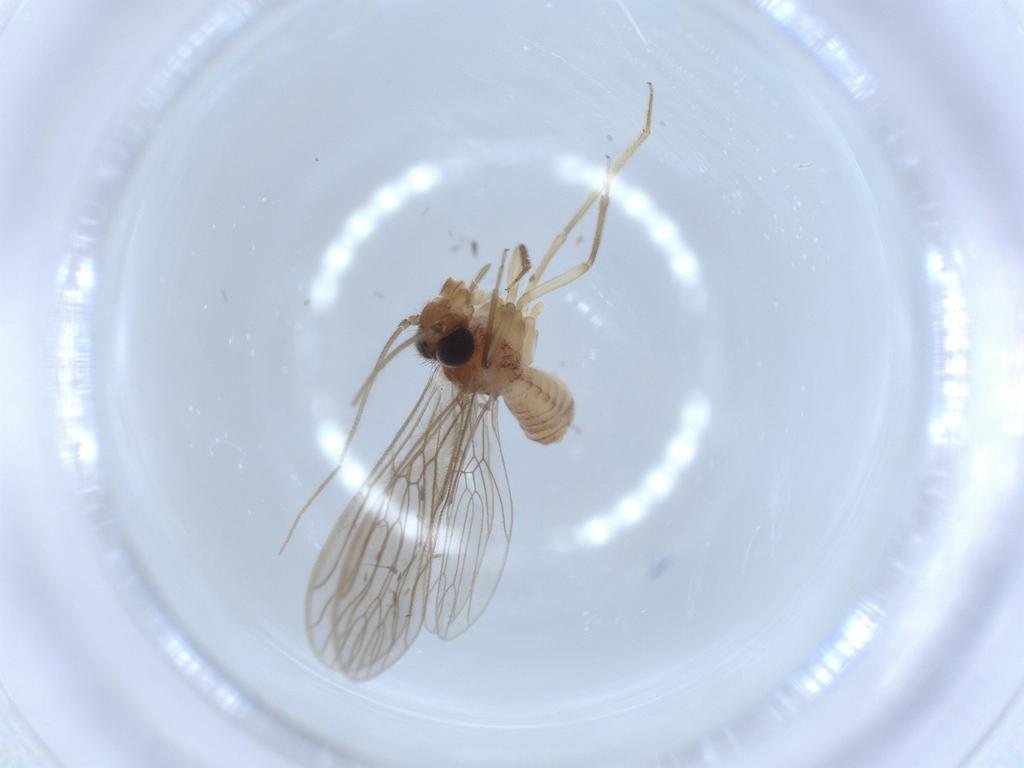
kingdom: Animalia
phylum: Arthropoda
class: Insecta
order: Psocodea
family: Cladiopsocidae
